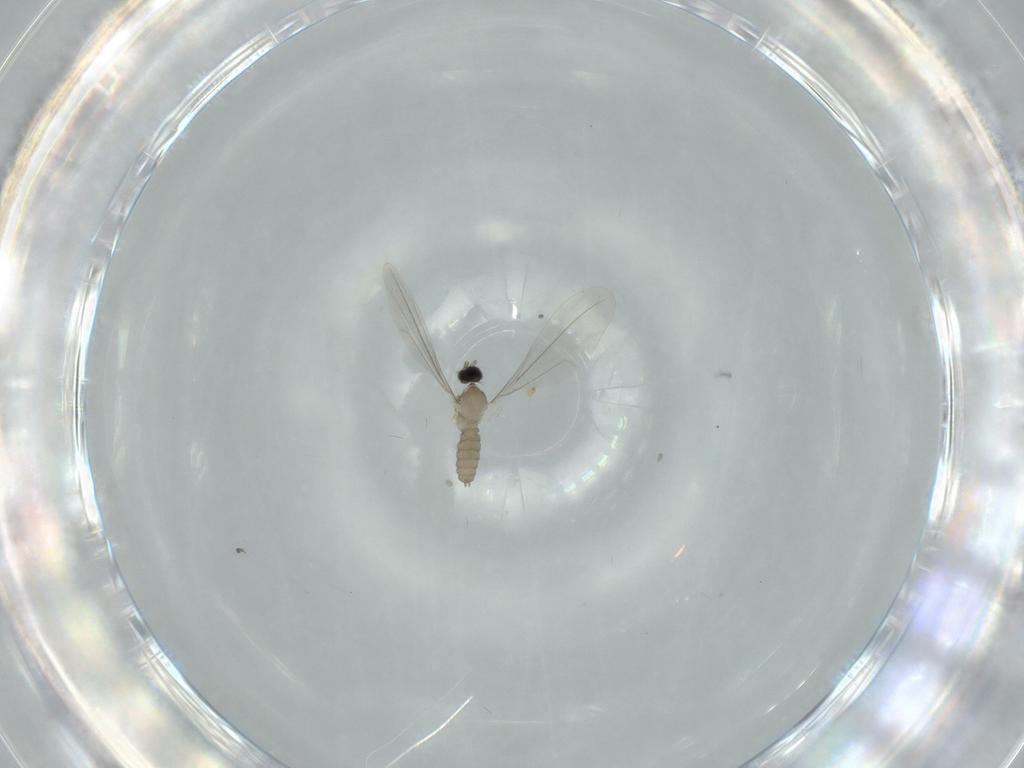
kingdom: Animalia
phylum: Arthropoda
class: Insecta
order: Diptera
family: Cecidomyiidae
